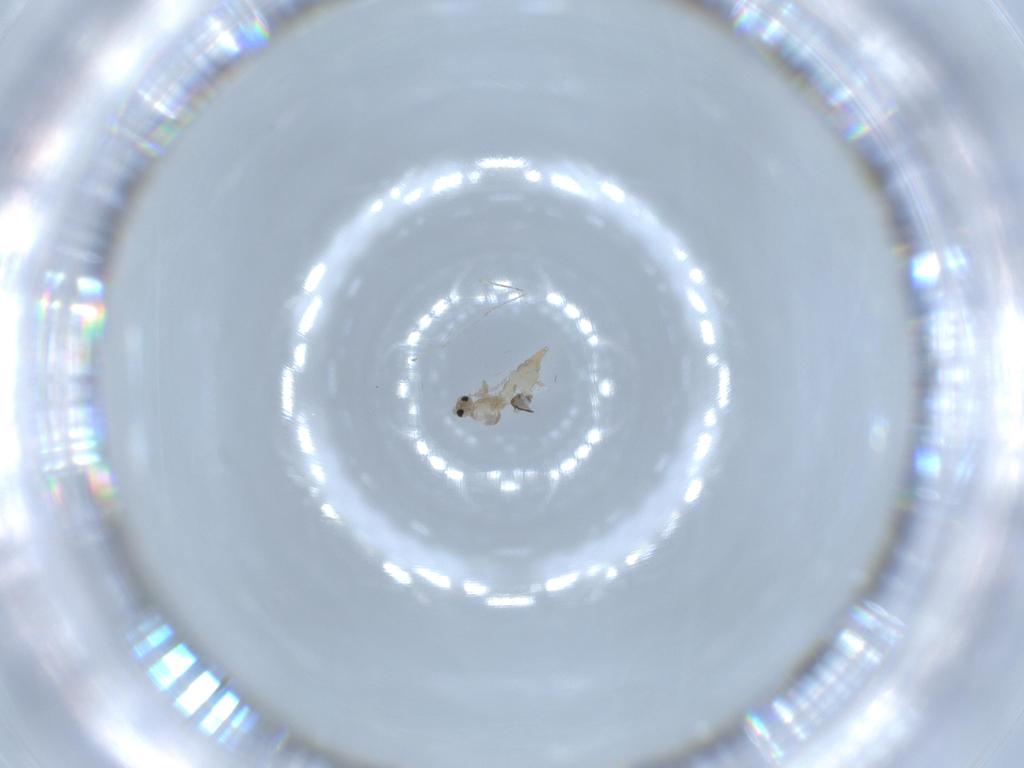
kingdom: Animalia
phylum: Arthropoda
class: Insecta
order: Diptera
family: Cecidomyiidae
